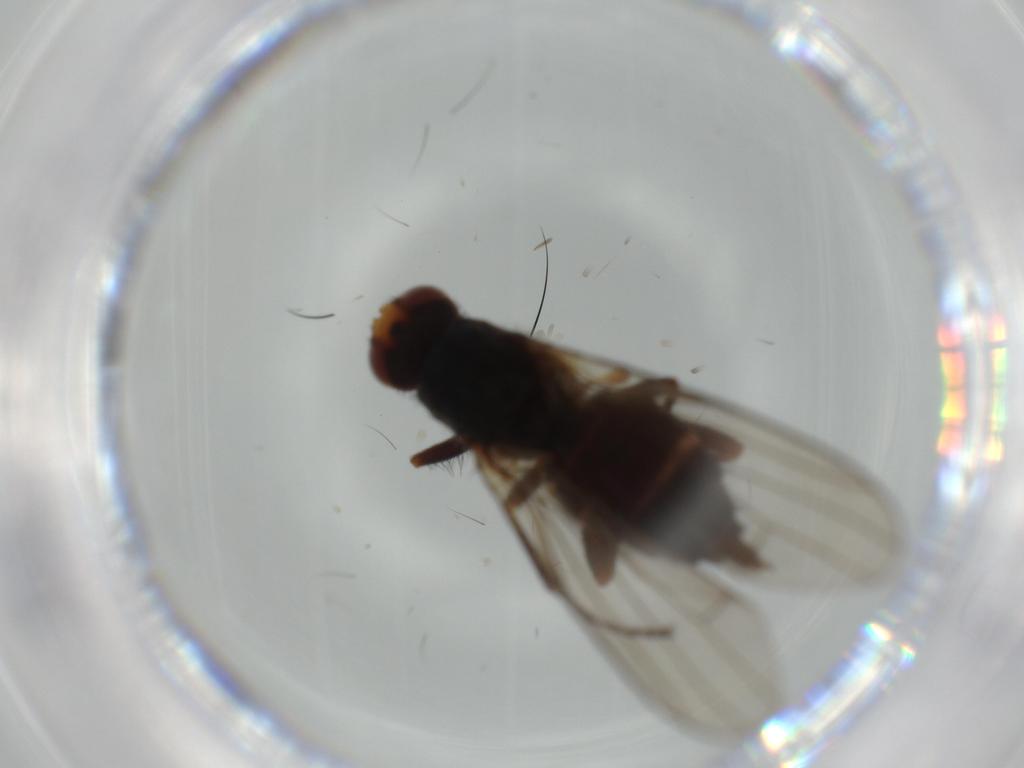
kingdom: Animalia
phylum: Arthropoda
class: Insecta
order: Diptera
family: Heleomyzidae
